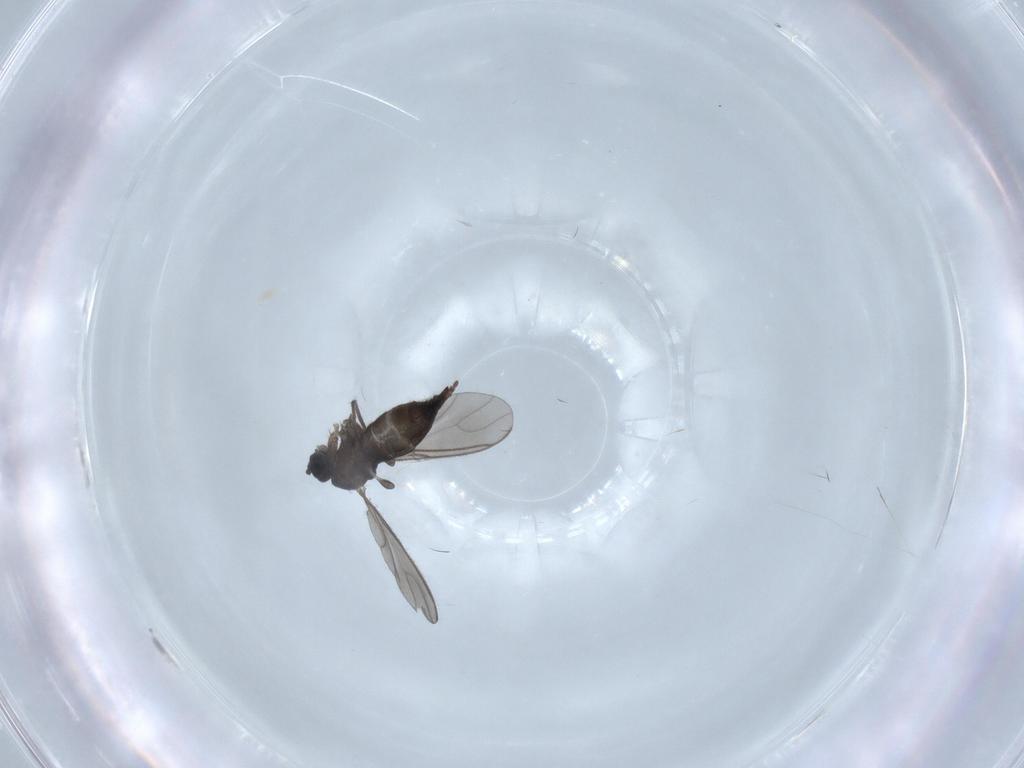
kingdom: Animalia
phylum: Arthropoda
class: Insecta
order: Diptera
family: Sciaridae
